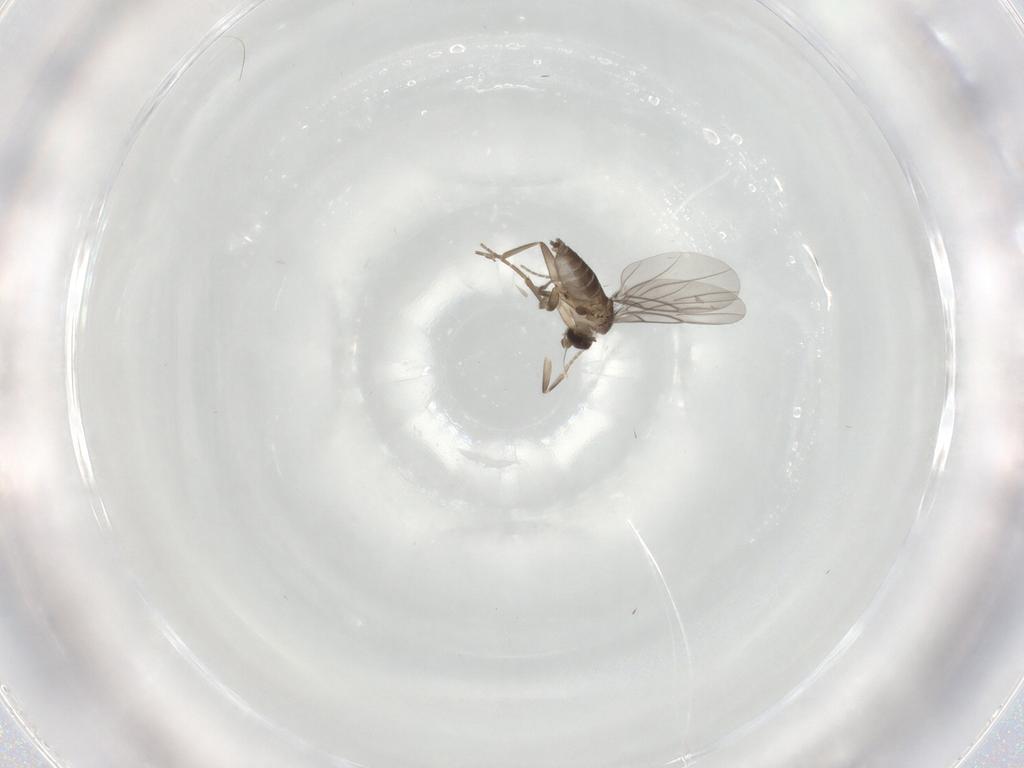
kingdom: Animalia
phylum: Arthropoda
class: Insecta
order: Diptera
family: Phoridae
